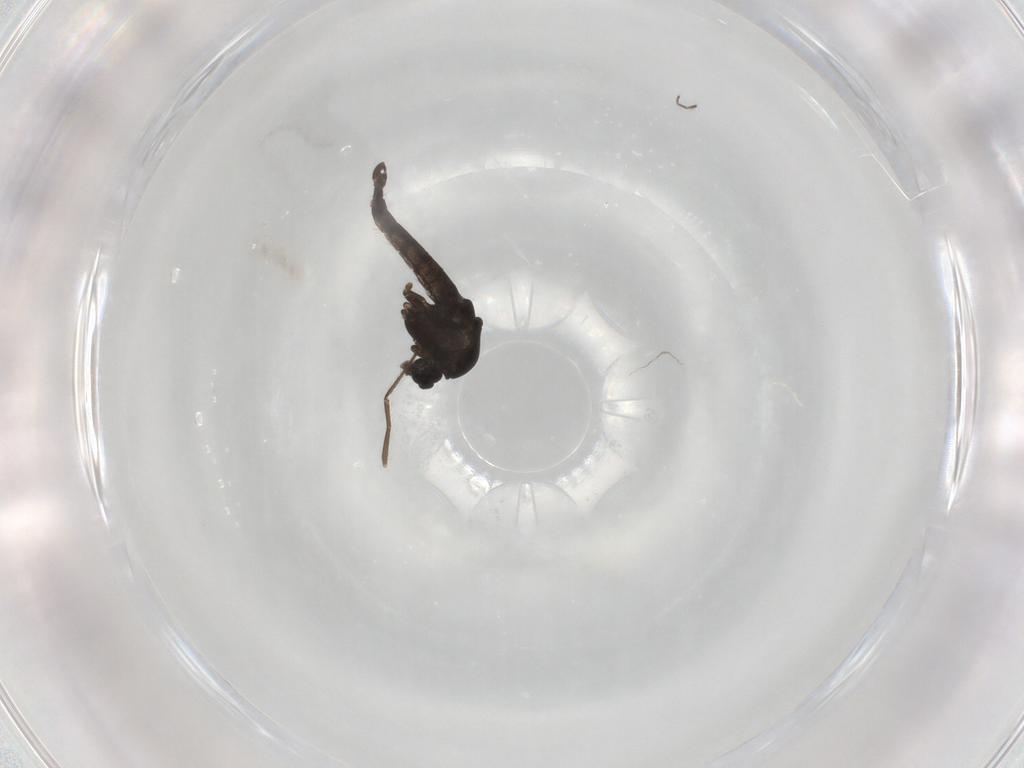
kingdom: Animalia
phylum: Arthropoda
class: Insecta
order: Diptera
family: Chironomidae
